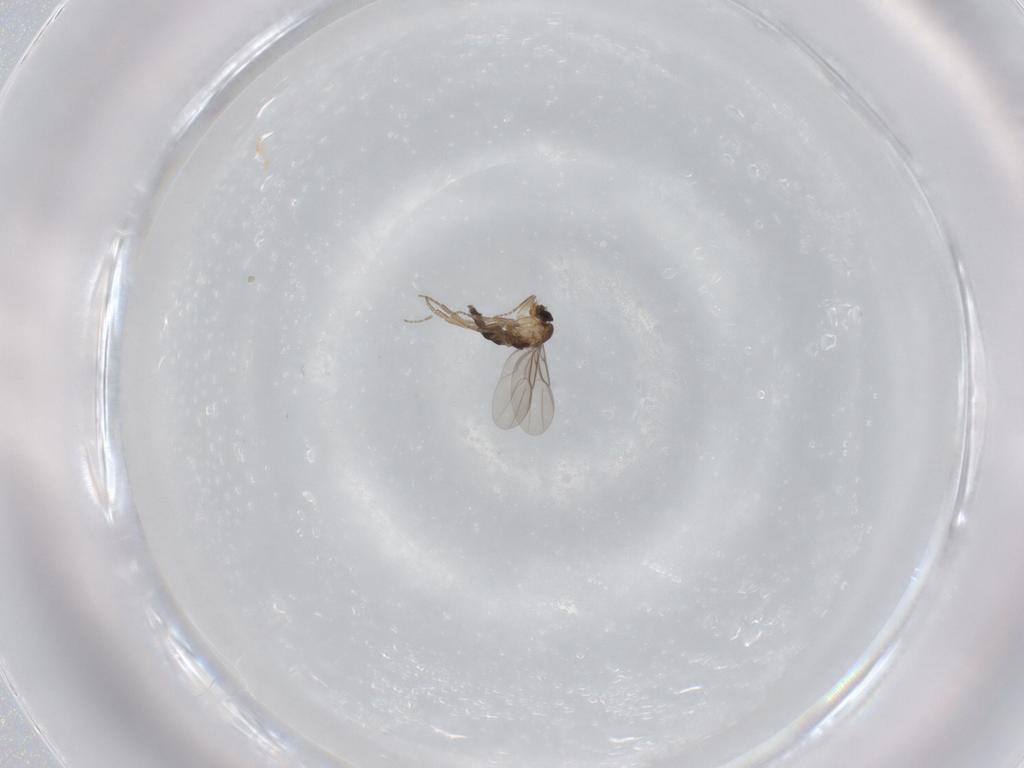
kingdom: Animalia
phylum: Arthropoda
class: Insecta
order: Diptera
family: Phoridae
